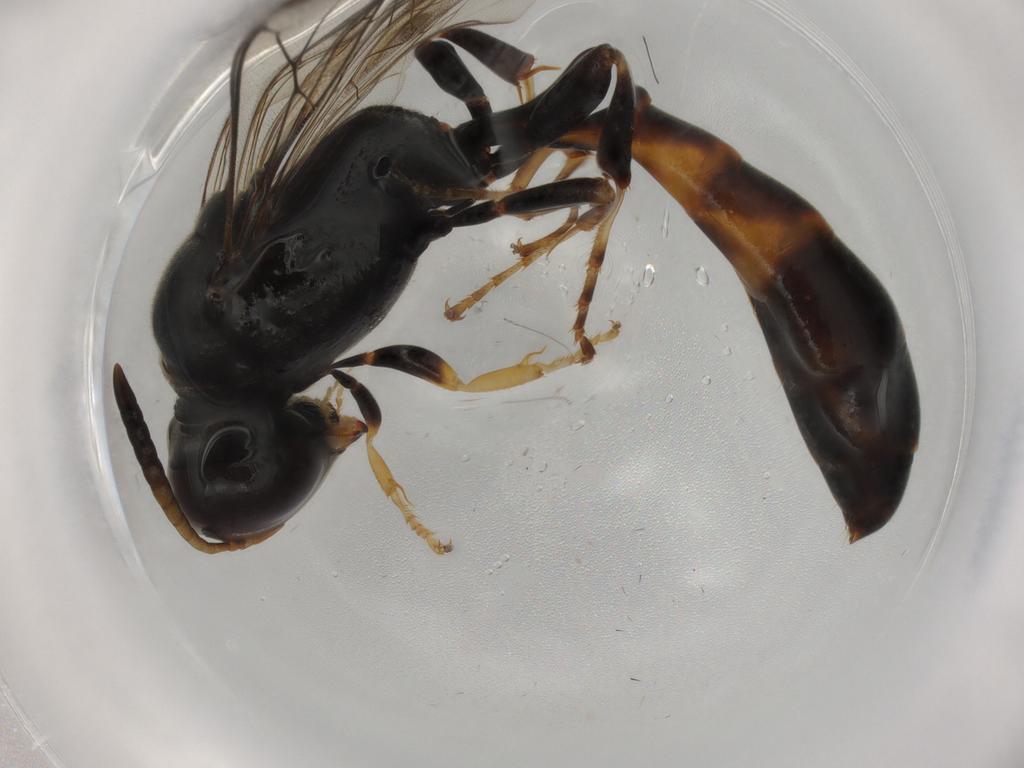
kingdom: Animalia
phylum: Arthropoda
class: Insecta
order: Hymenoptera
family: Crabronidae
